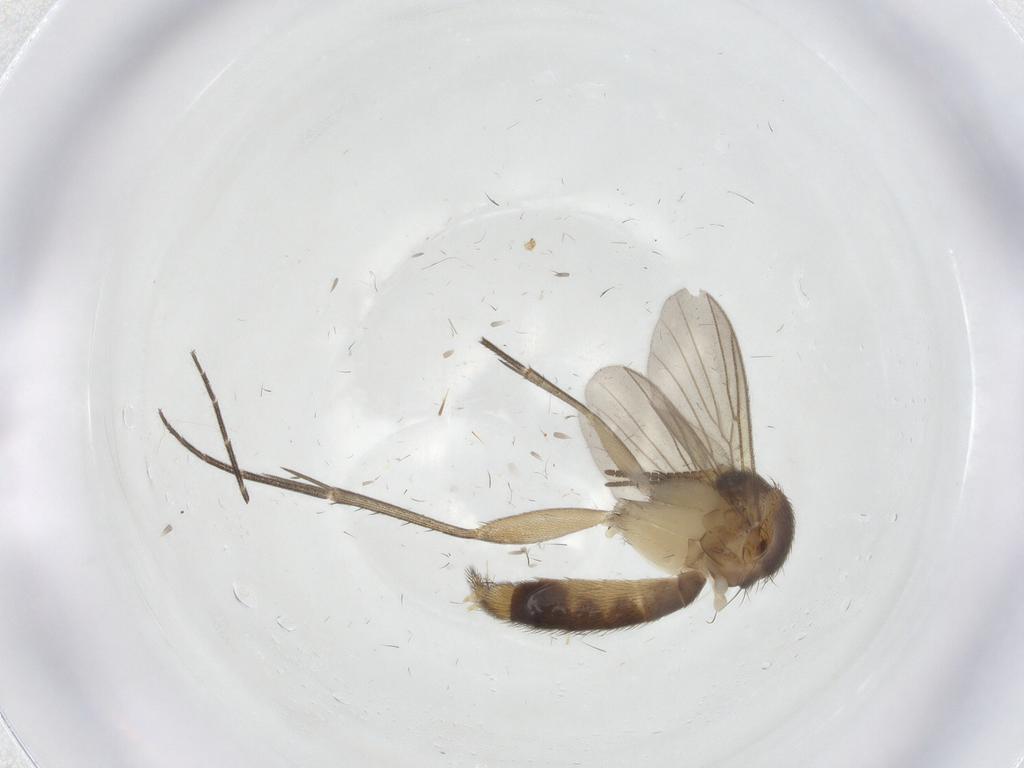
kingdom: Animalia
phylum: Arthropoda
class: Insecta
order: Diptera
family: Mycetophilidae
